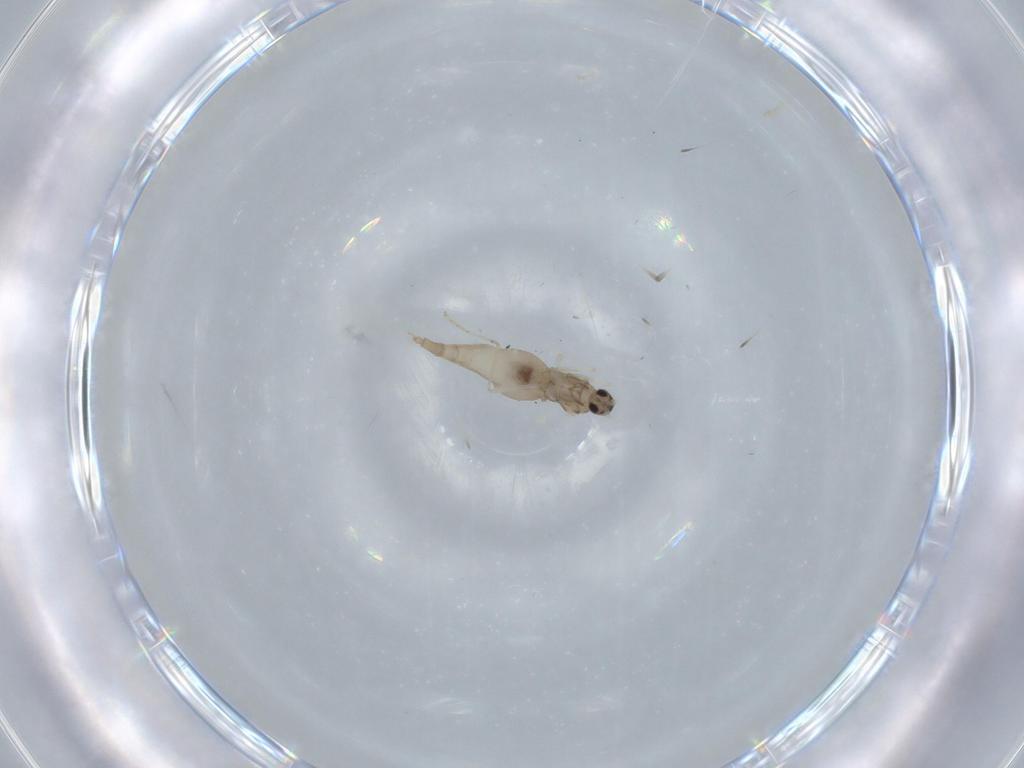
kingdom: Animalia
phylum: Arthropoda
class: Insecta
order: Diptera
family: Cecidomyiidae
